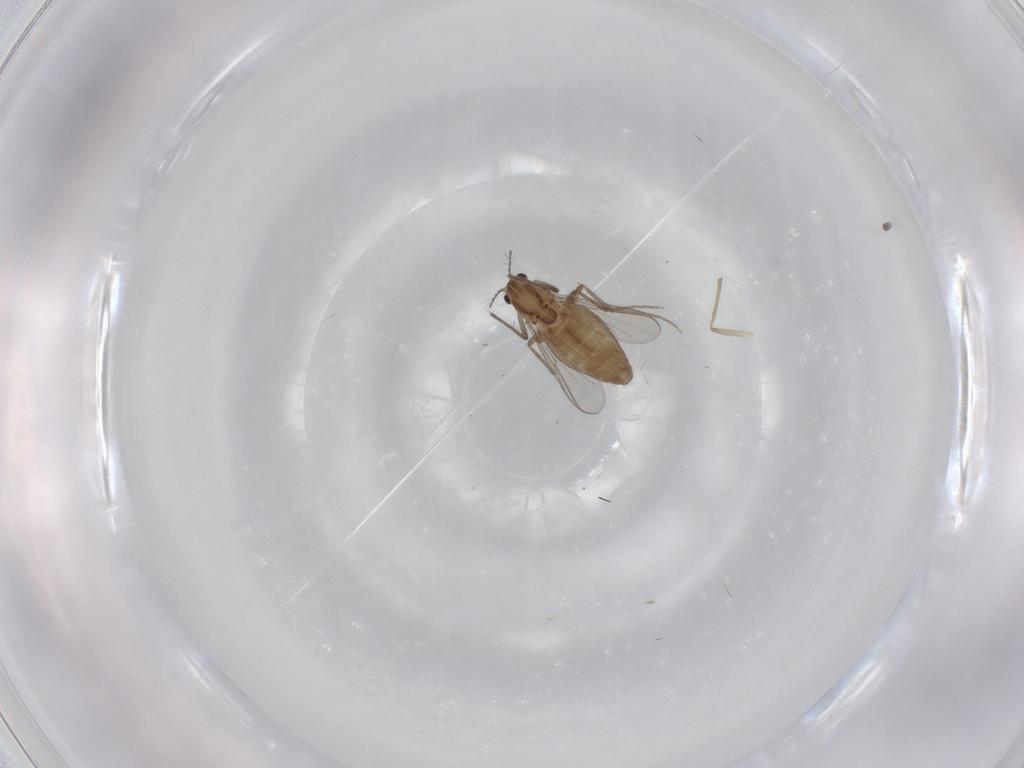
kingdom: Animalia
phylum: Arthropoda
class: Insecta
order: Diptera
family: Chironomidae
